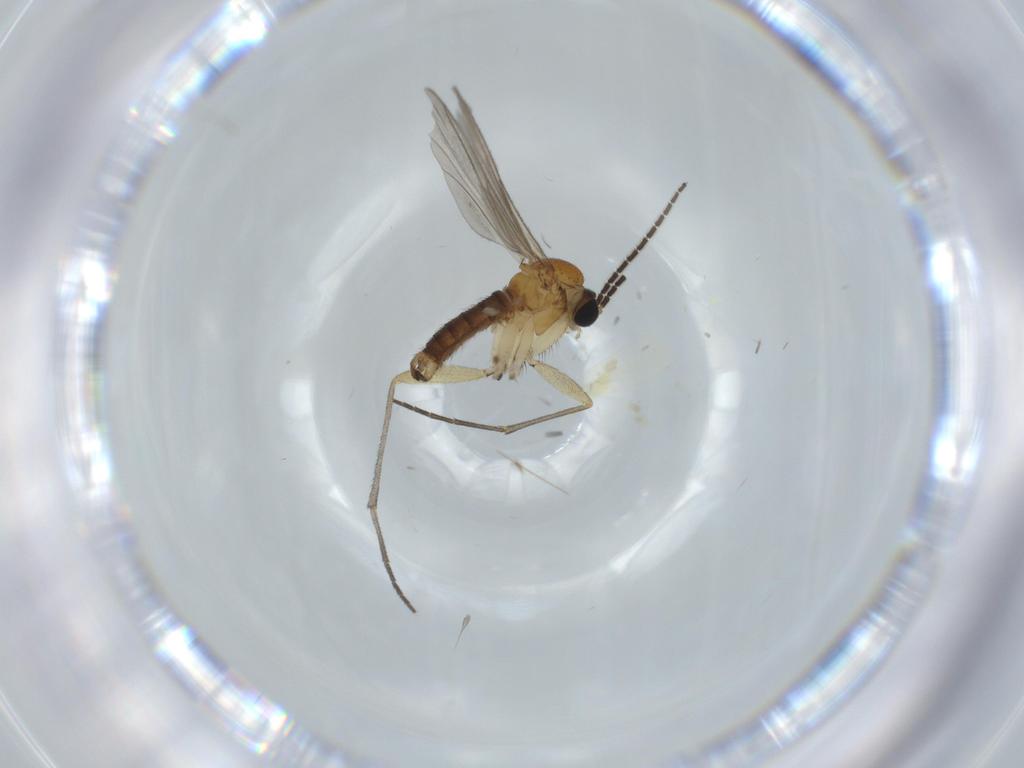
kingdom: Animalia
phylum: Arthropoda
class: Insecta
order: Diptera
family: Sciaridae
